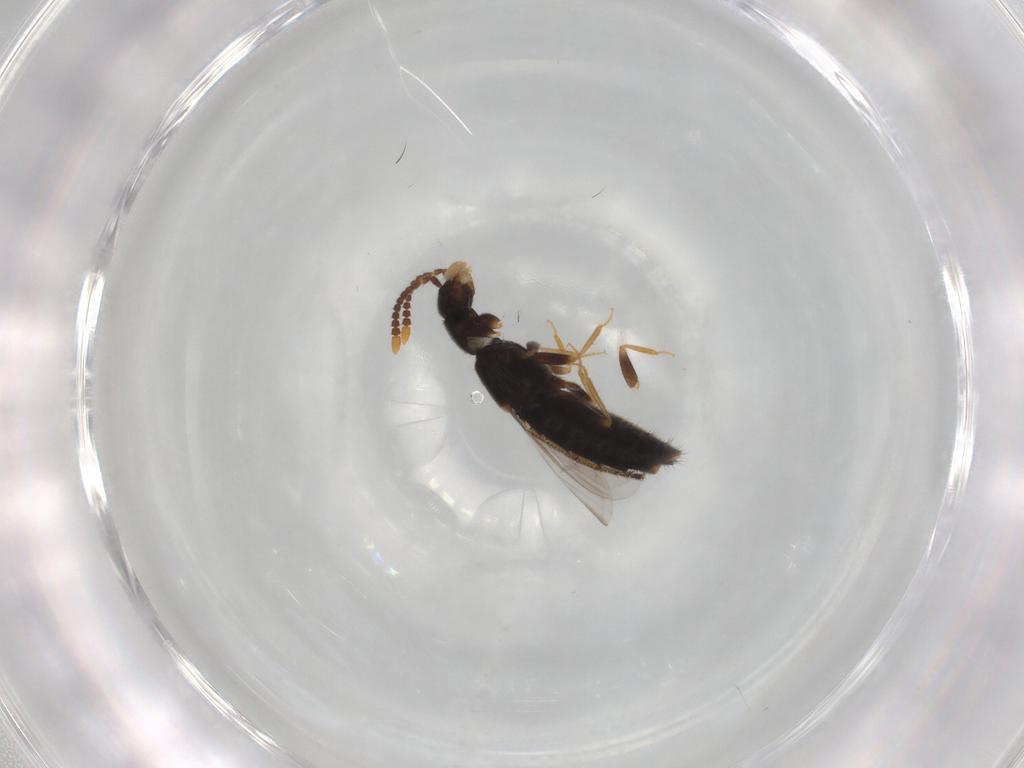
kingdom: Animalia
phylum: Arthropoda
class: Insecta
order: Coleoptera
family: Staphylinidae
